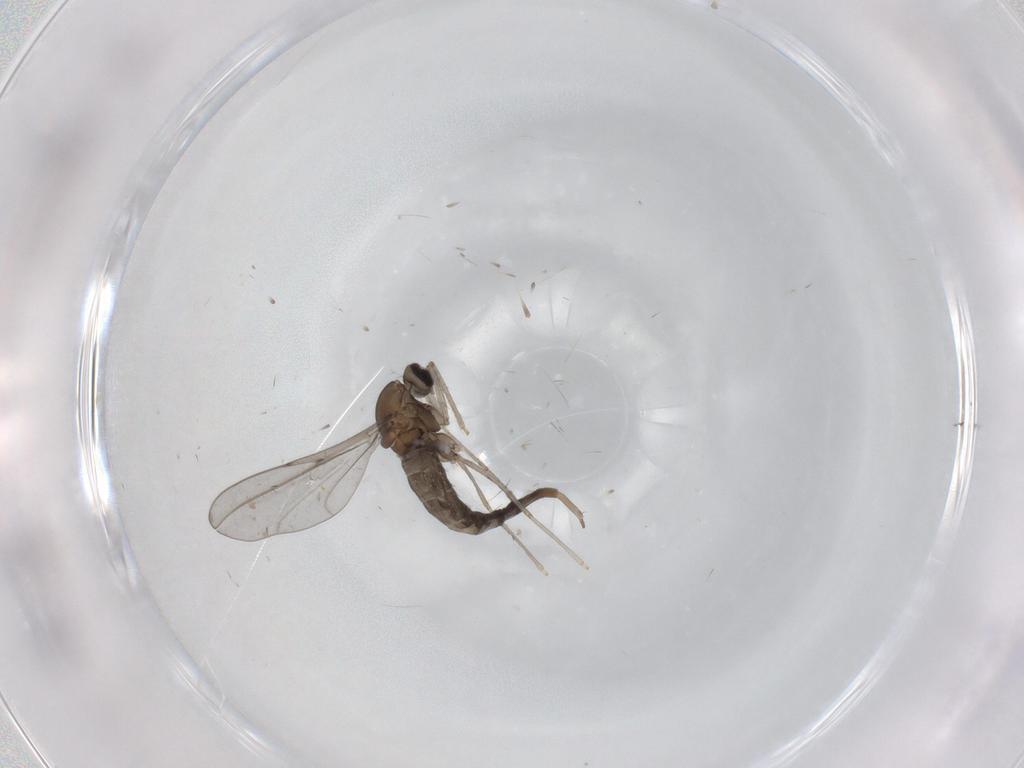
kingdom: Animalia
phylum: Arthropoda
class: Insecta
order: Diptera
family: Cecidomyiidae
